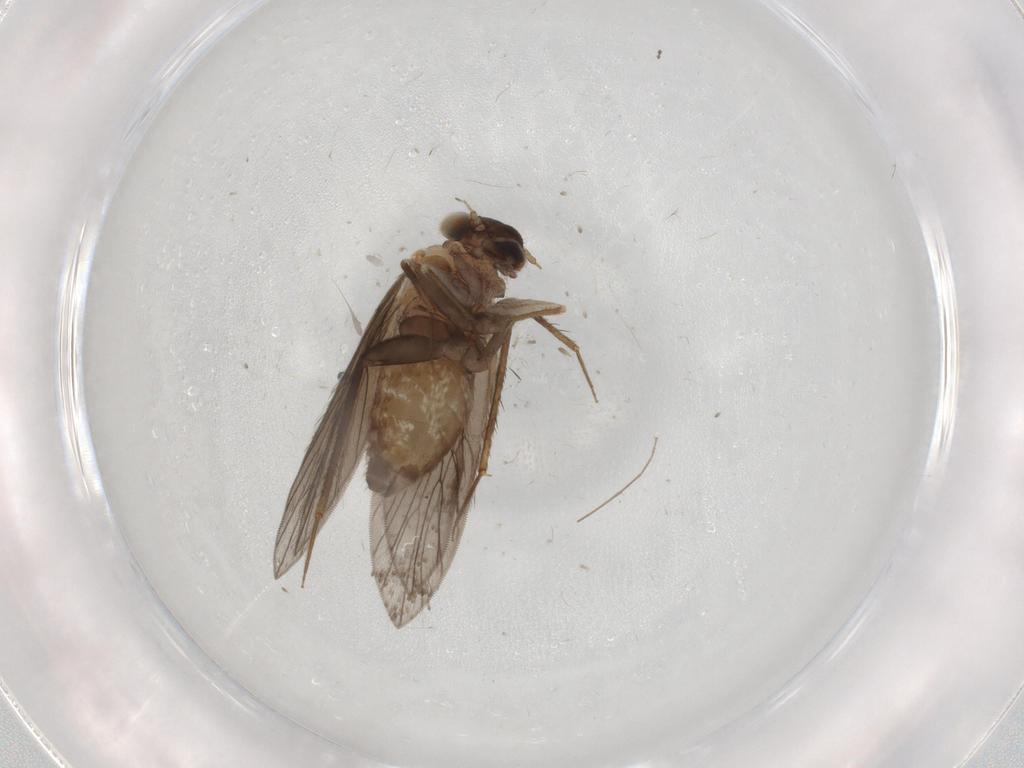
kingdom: Animalia
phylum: Arthropoda
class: Insecta
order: Psocodea
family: Lepidopsocidae
